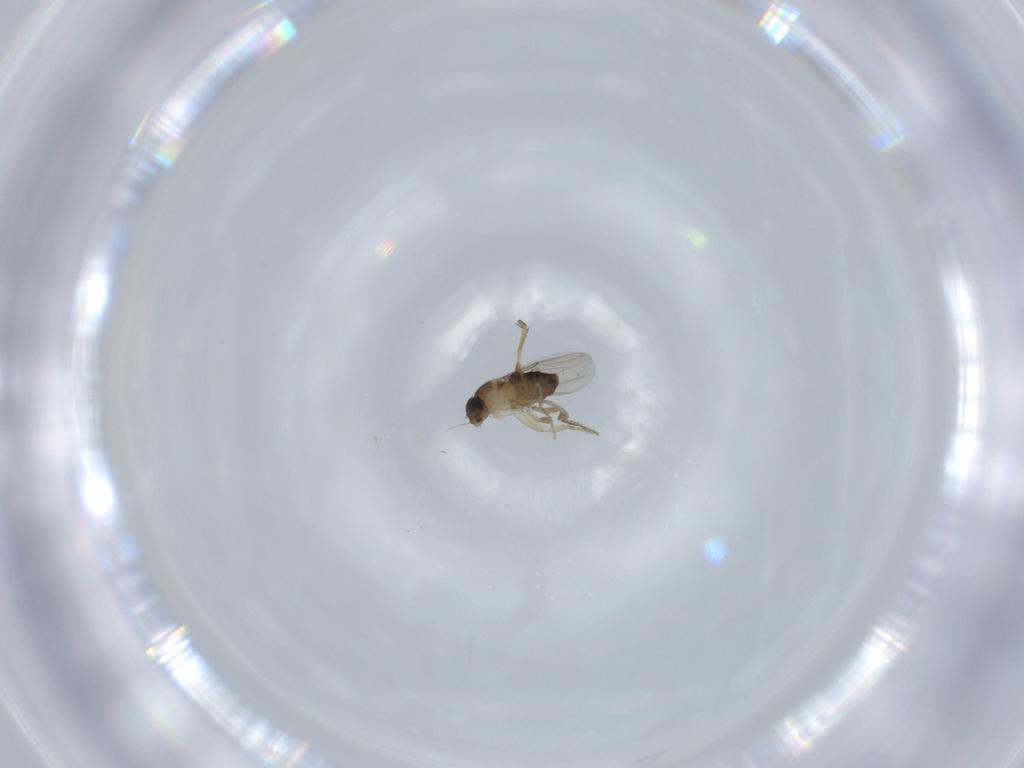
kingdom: Animalia
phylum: Arthropoda
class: Insecta
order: Diptera
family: Phoridae
